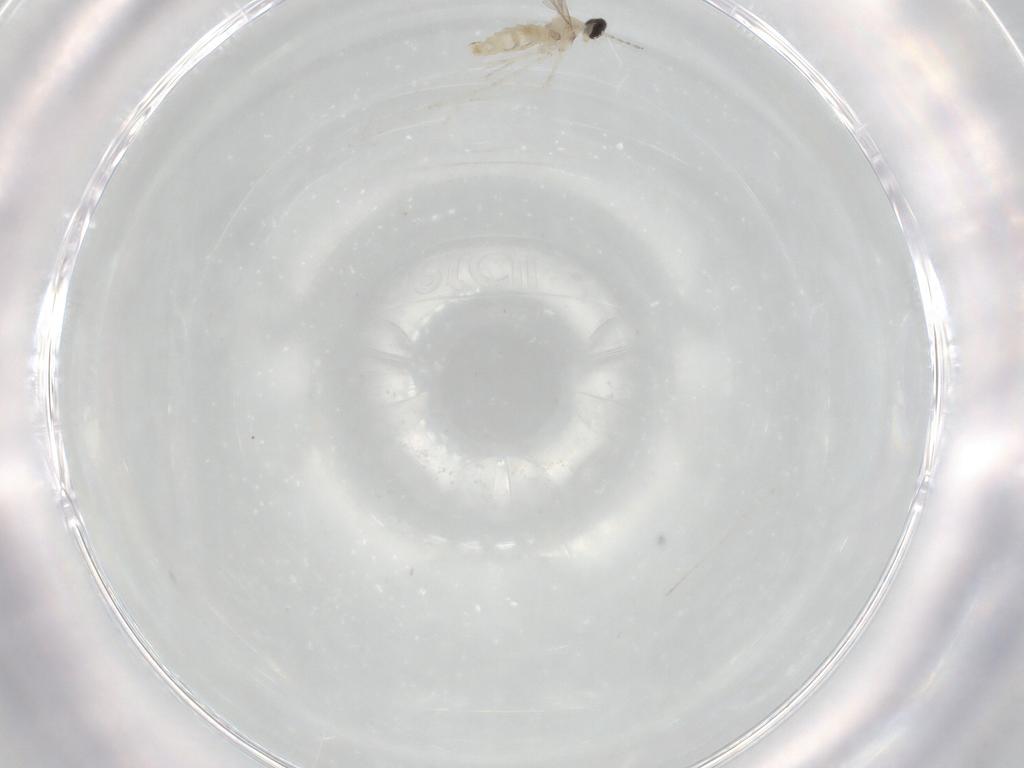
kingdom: Animalia
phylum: Arthropoda
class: Insecta
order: Diptera
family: Cecidomyiidae
